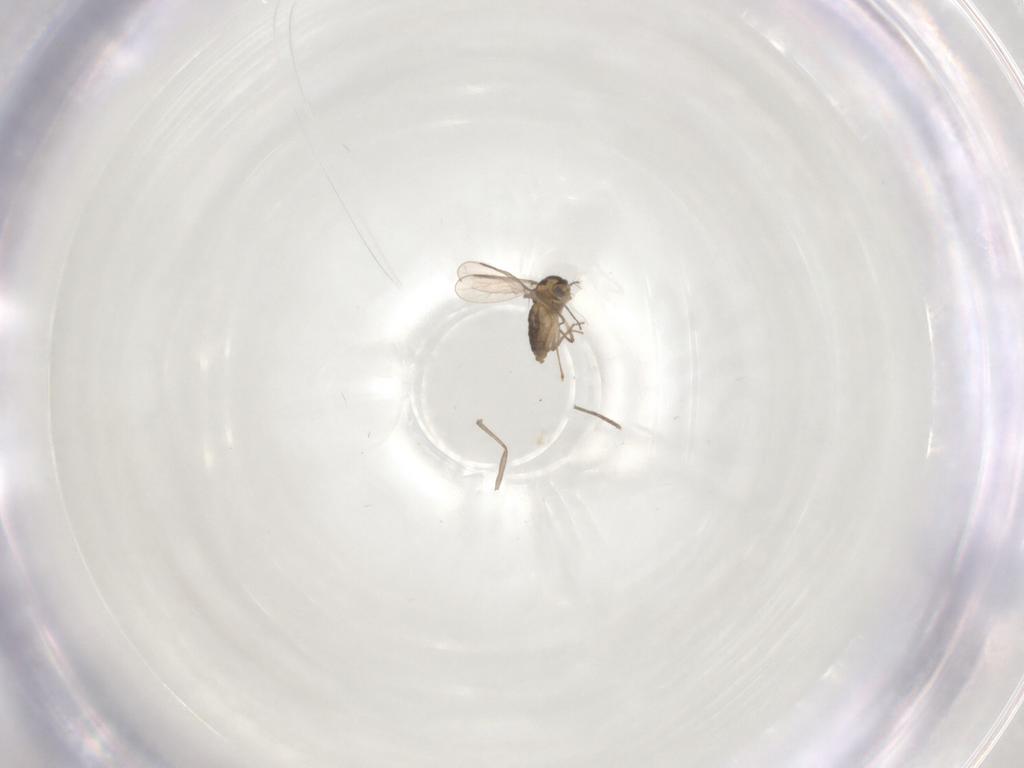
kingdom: Animalia
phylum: Arthropoda
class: Insecta
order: Diptera
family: Chironomidae
